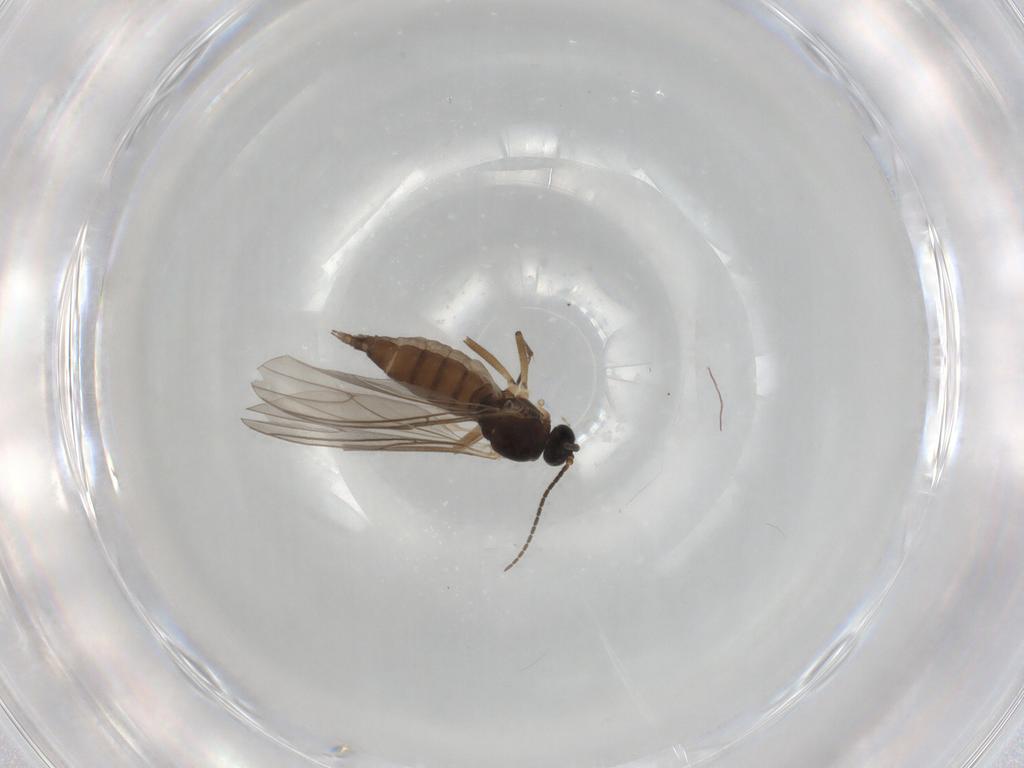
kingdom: Animalia
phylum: Arthropoda
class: Insecta
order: Diptera
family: Sciaridae
